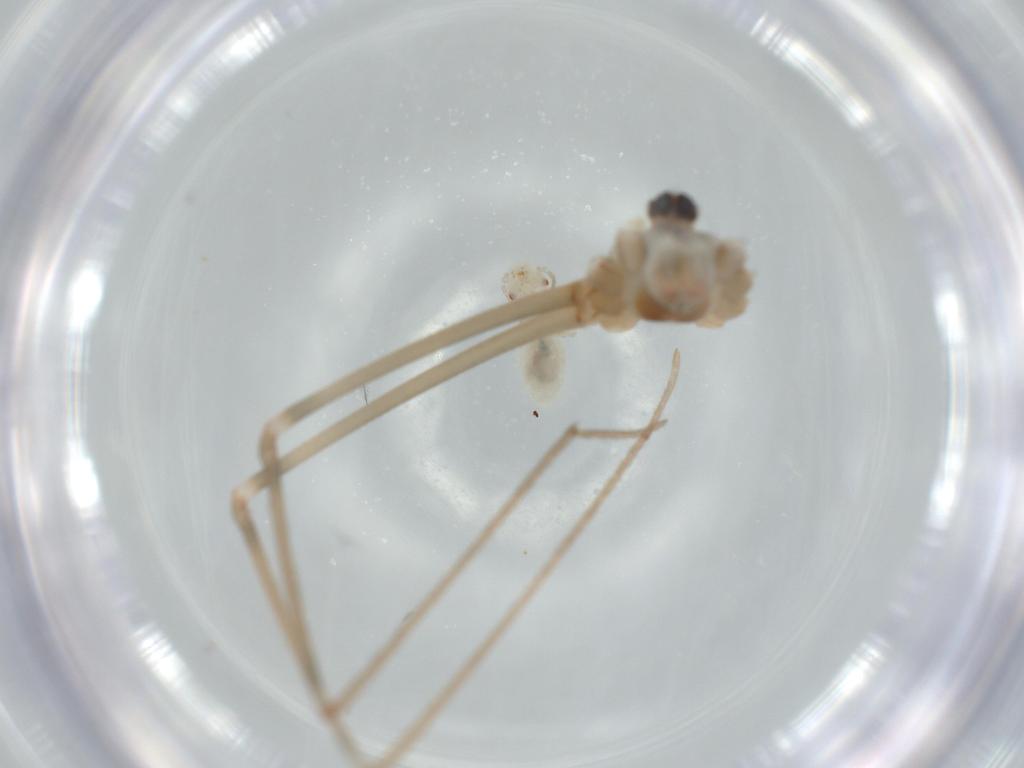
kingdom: Animalia
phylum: Arthropoda
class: Insecta
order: Psocodea
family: Caeciliusidae
